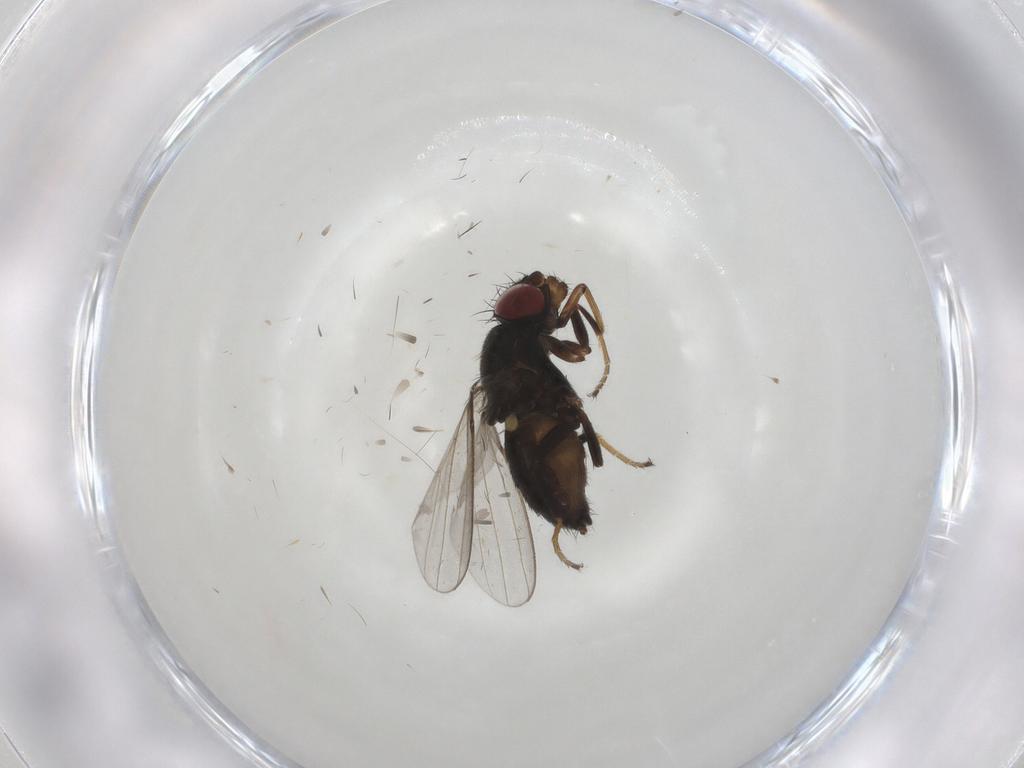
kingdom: Animalia
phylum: Arthropoda
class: Insecta
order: Diptera
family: Milichiidae
